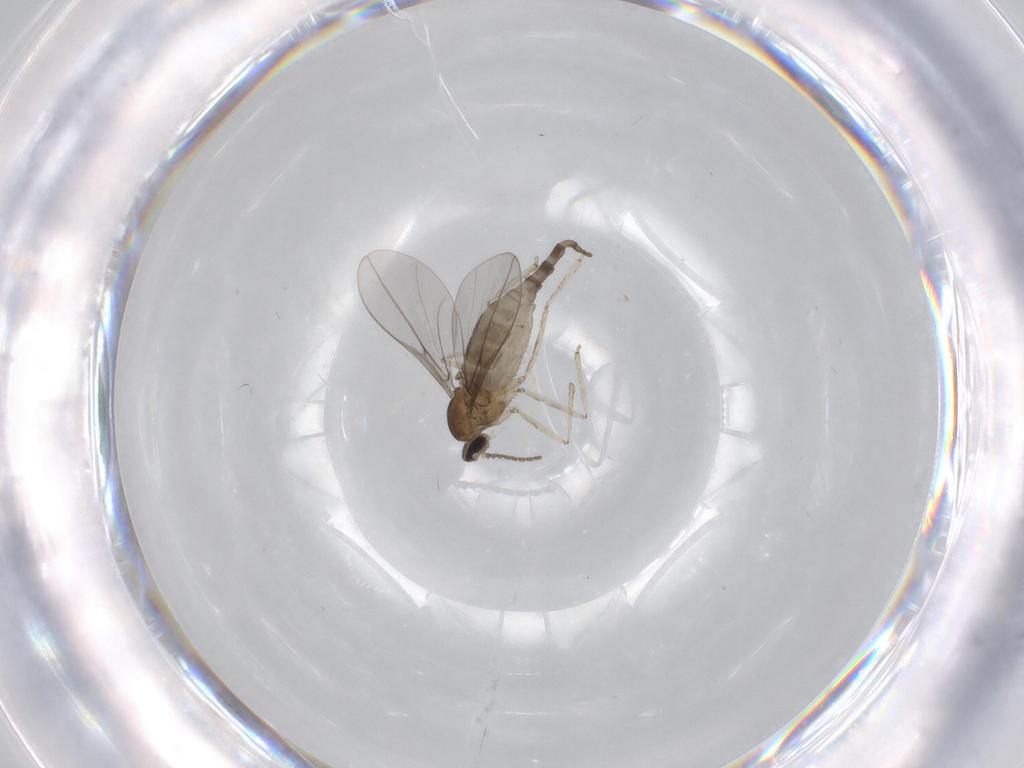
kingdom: Animalia
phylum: Arthropoda
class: Insecta
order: Diptera
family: Cecidomyiidae
